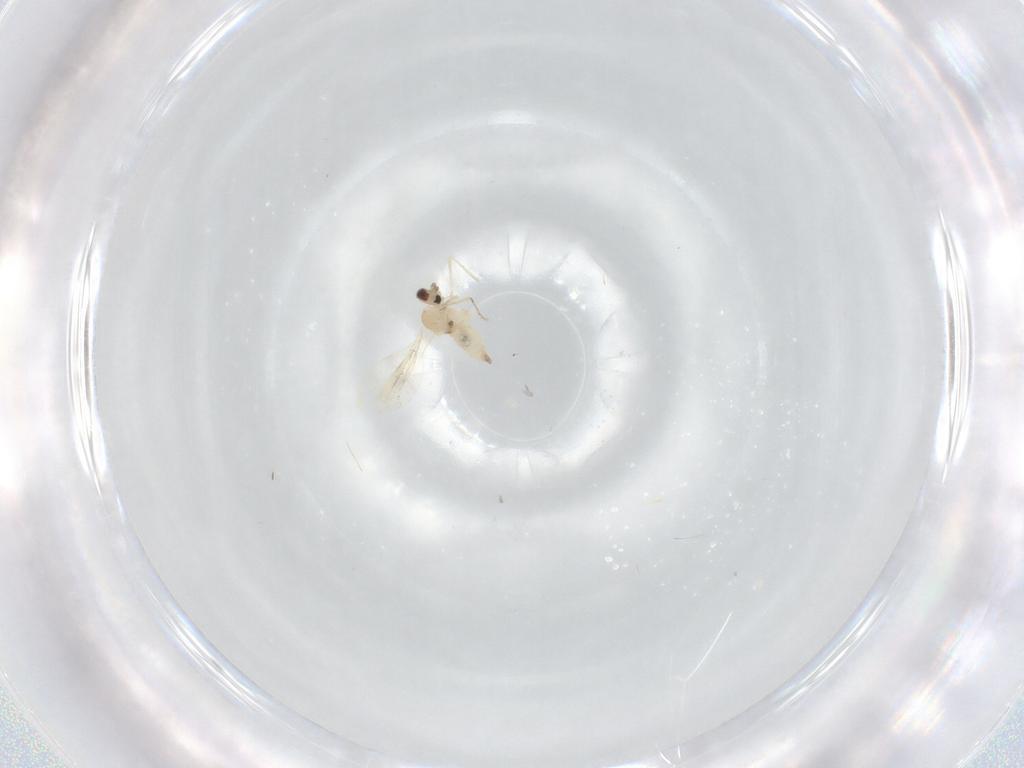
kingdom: Animalia
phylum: Arthropoda
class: Insecta
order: Diptera
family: Cecidomyiidae
